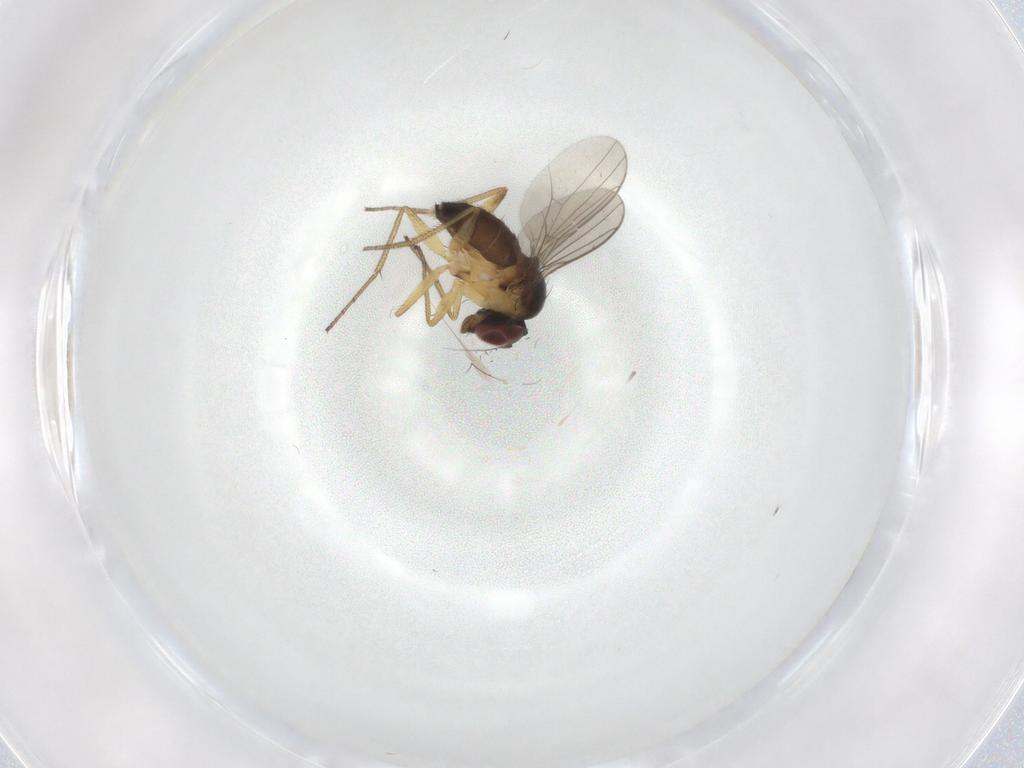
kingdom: Animalia
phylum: Arthropoda
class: Insecta
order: Diptera
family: Dolichopodidae
